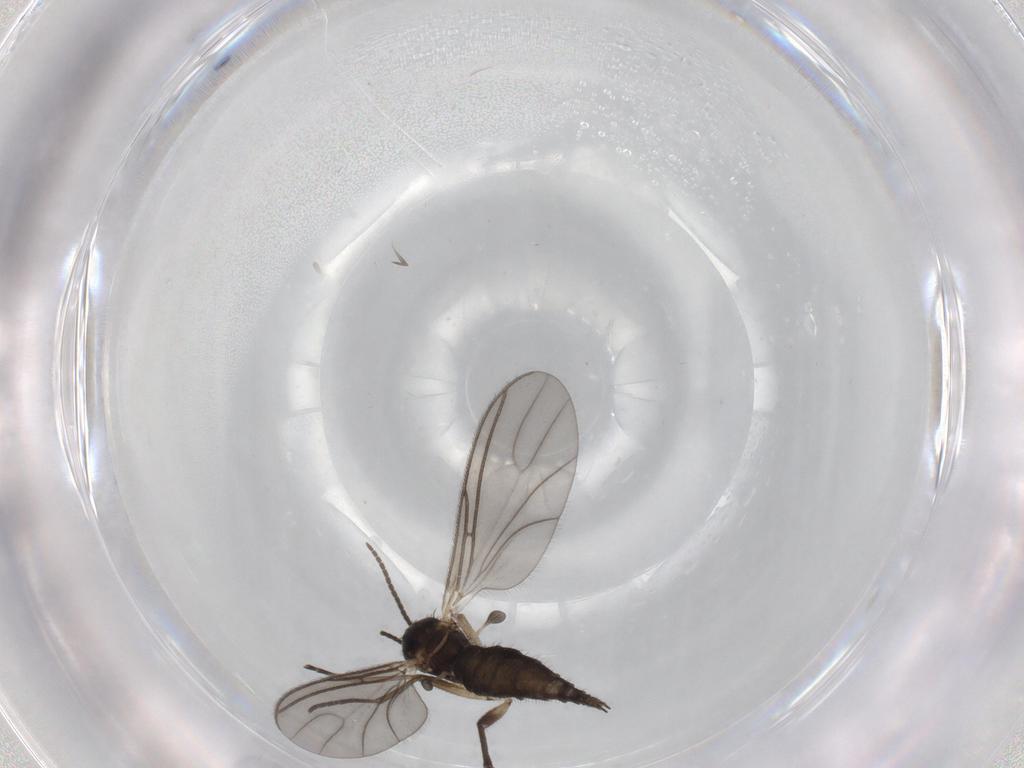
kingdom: Animalia
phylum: Arthropoda
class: Insecta
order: Diptera
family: Sciaridae
